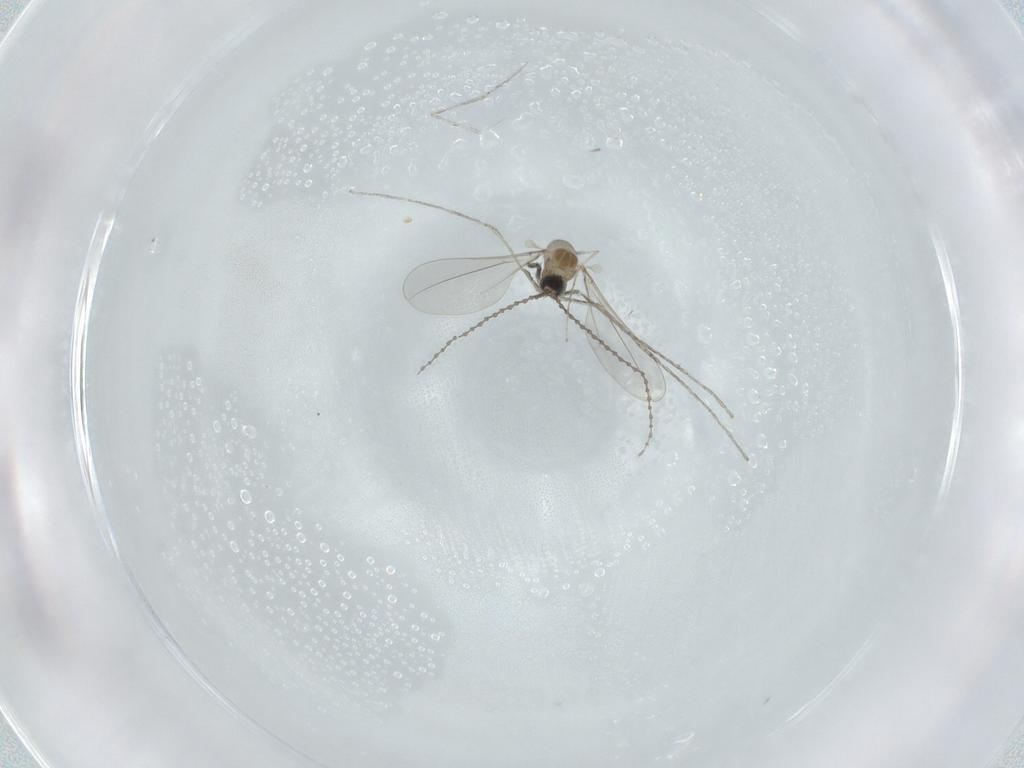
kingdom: Animalia
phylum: Arthropoda
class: Insecta
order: Diptera
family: Cecidomyiidae
